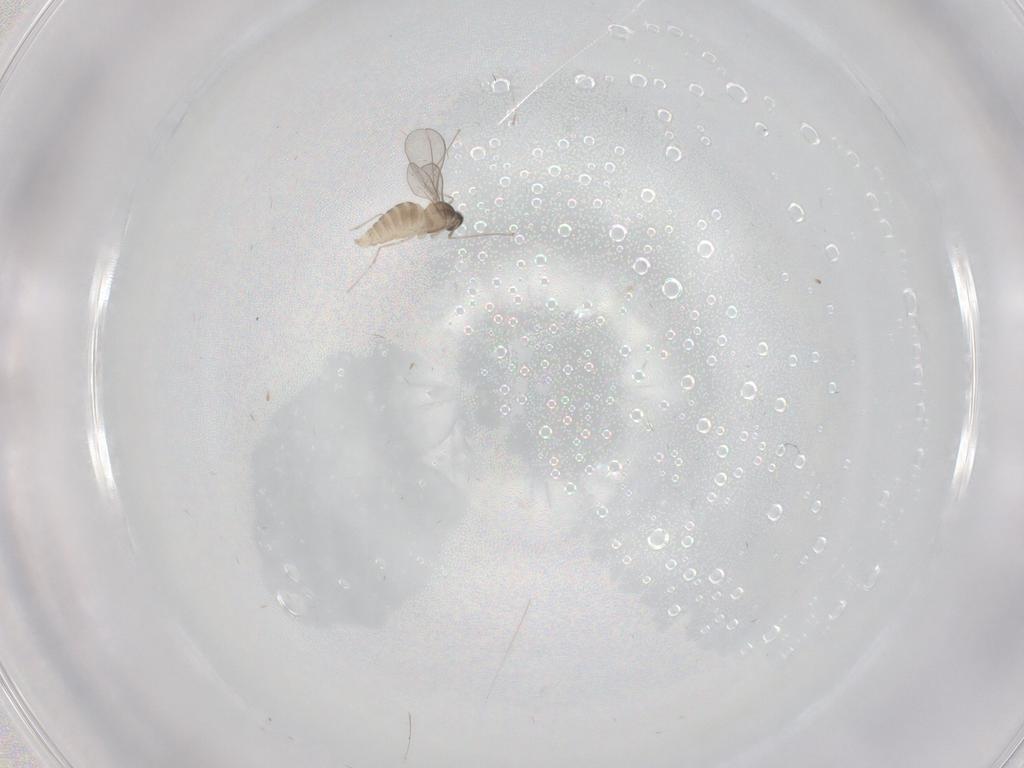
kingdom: Animalia
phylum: Arthropoda
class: Insecta
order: Diptera
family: Cecidomyiidae
